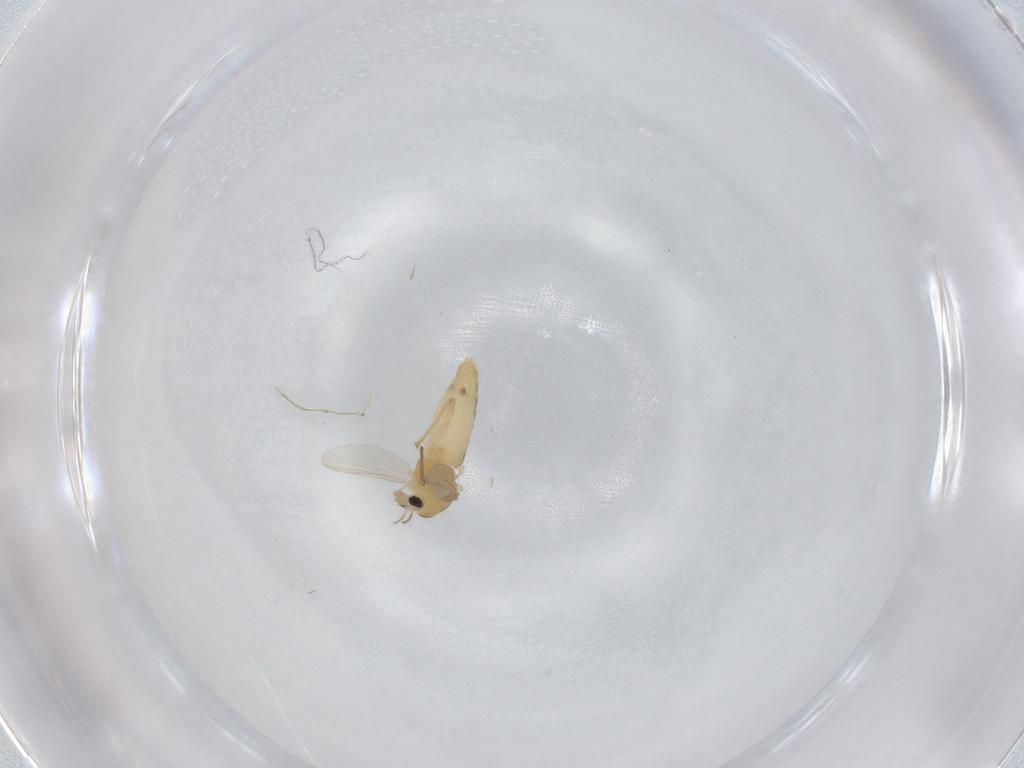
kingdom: Animalia
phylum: Arthropoda
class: Insecta
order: Diptera
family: Chironomidae
